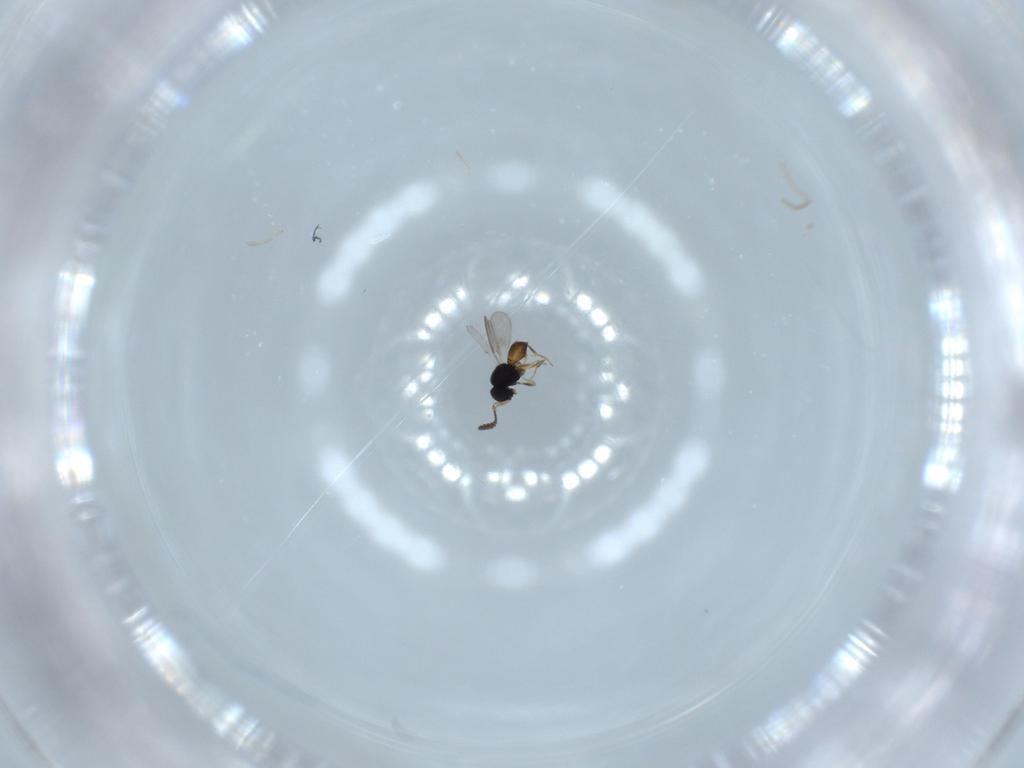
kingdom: Animalia
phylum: Arthropoda
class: Insecta
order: Hymenoptera
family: Scelionidae
